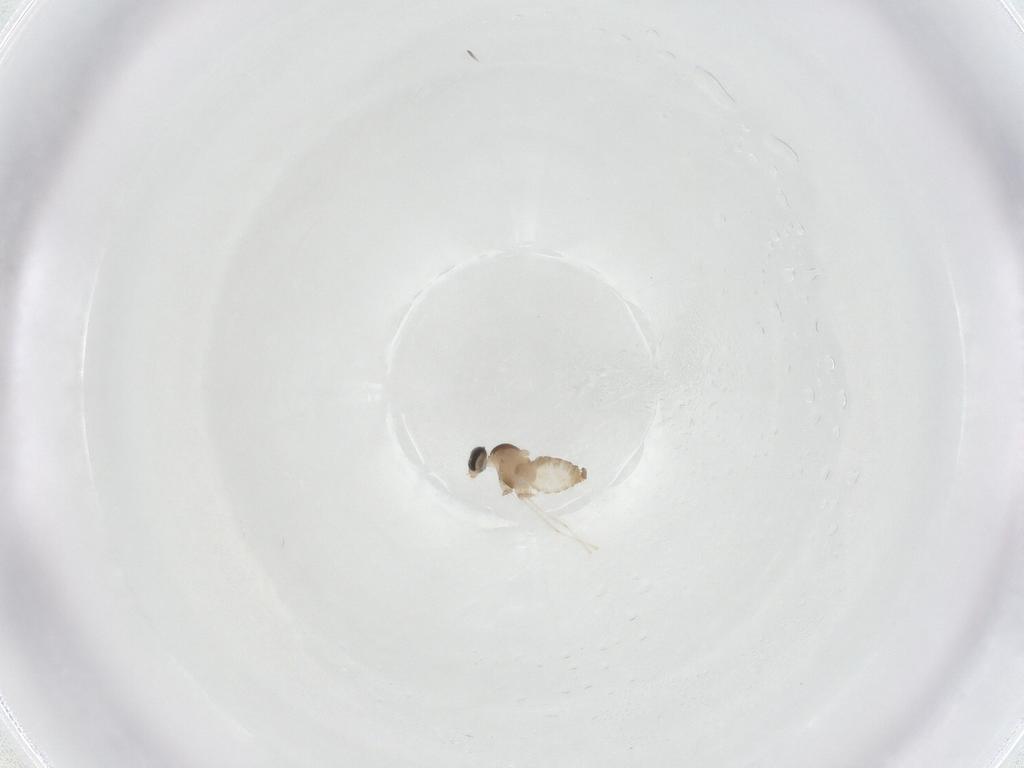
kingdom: Animalia
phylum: Arthropoda
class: Insecta
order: Diptera
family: Cecidomyiidae
